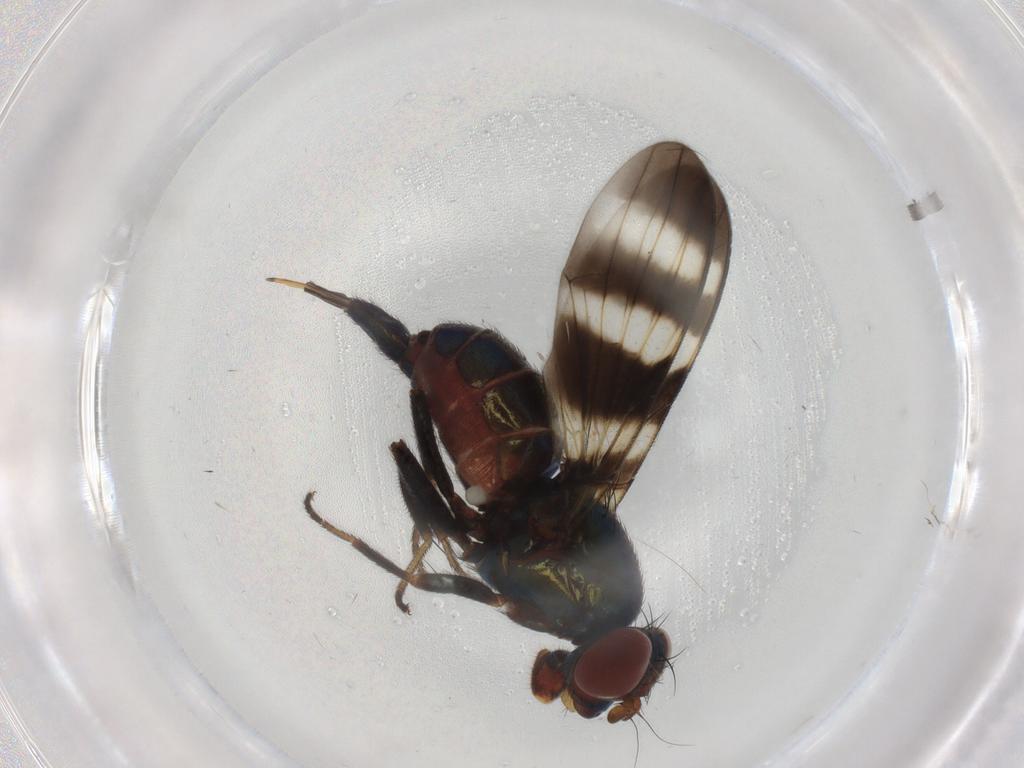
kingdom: Animalia
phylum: Arthropoda
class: Insecta
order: Diptera
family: Ulidiidae
